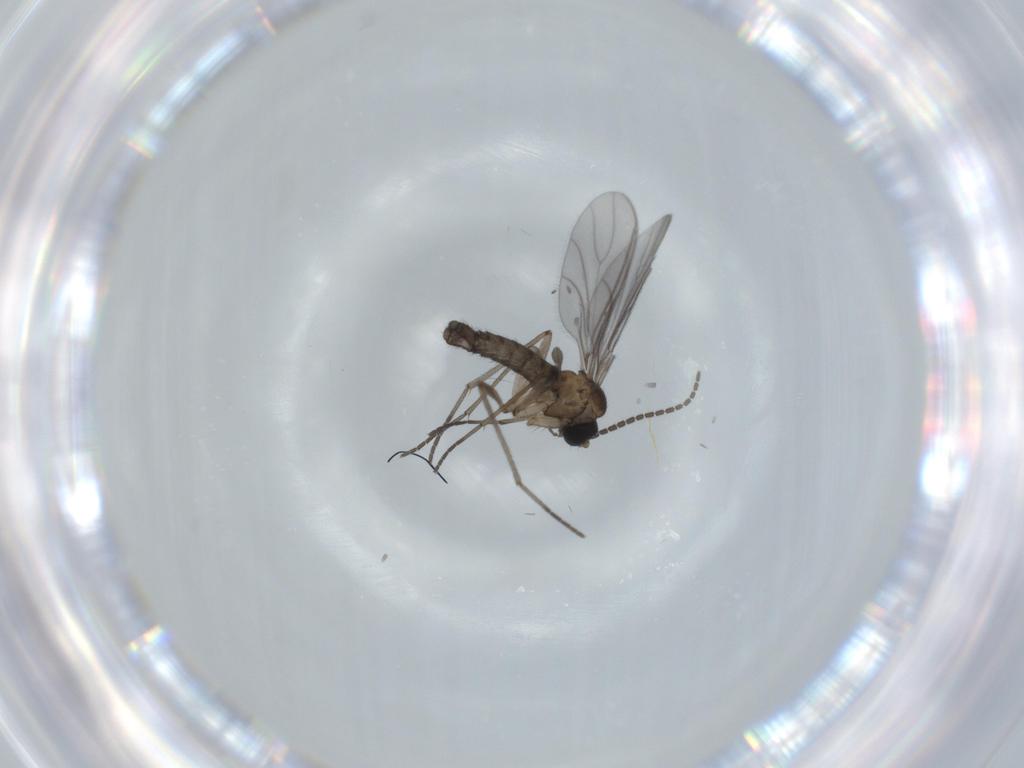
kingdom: Animalia
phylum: Arthropoda
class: Insecta
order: Diptera
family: Sciaridae
